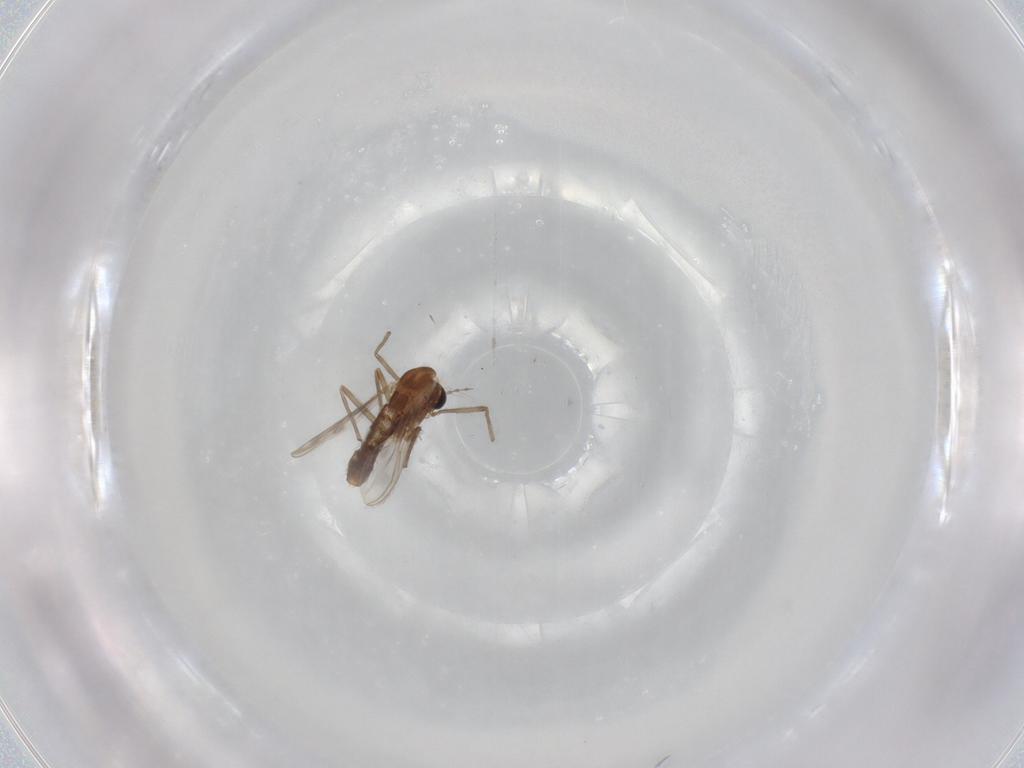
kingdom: Animalia
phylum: Arthropoda
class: Insecta
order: Diptera
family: Chironomidae
